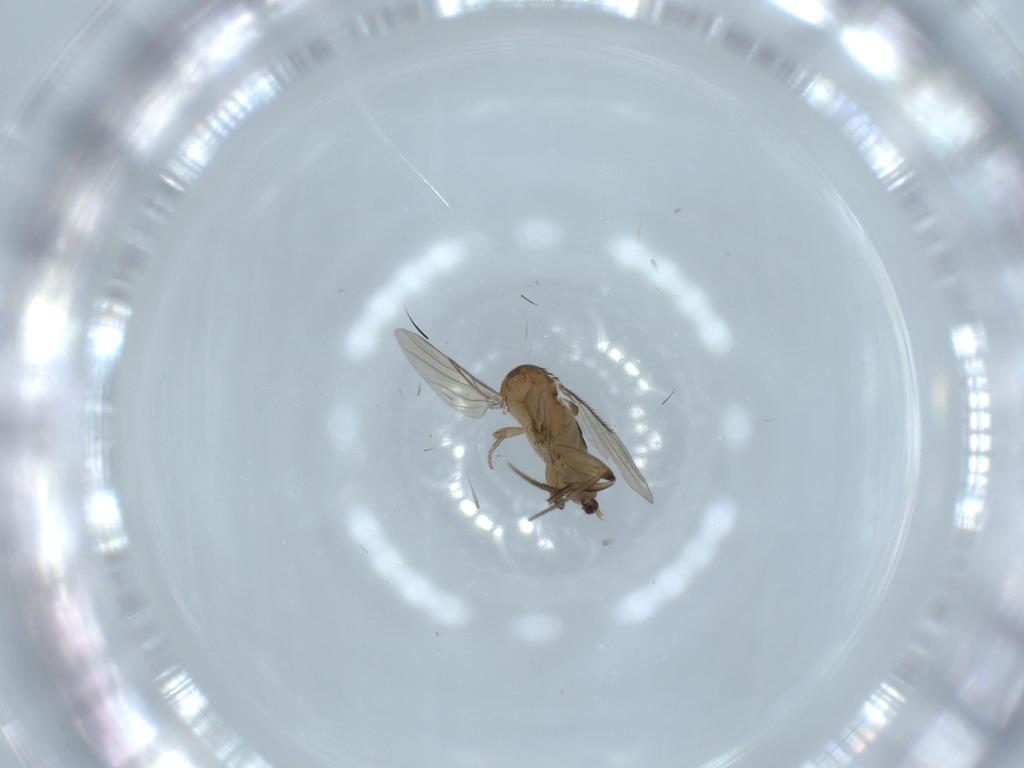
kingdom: Animalia
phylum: Arthropoda
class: Insecta
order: Diptera
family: Phoridae
